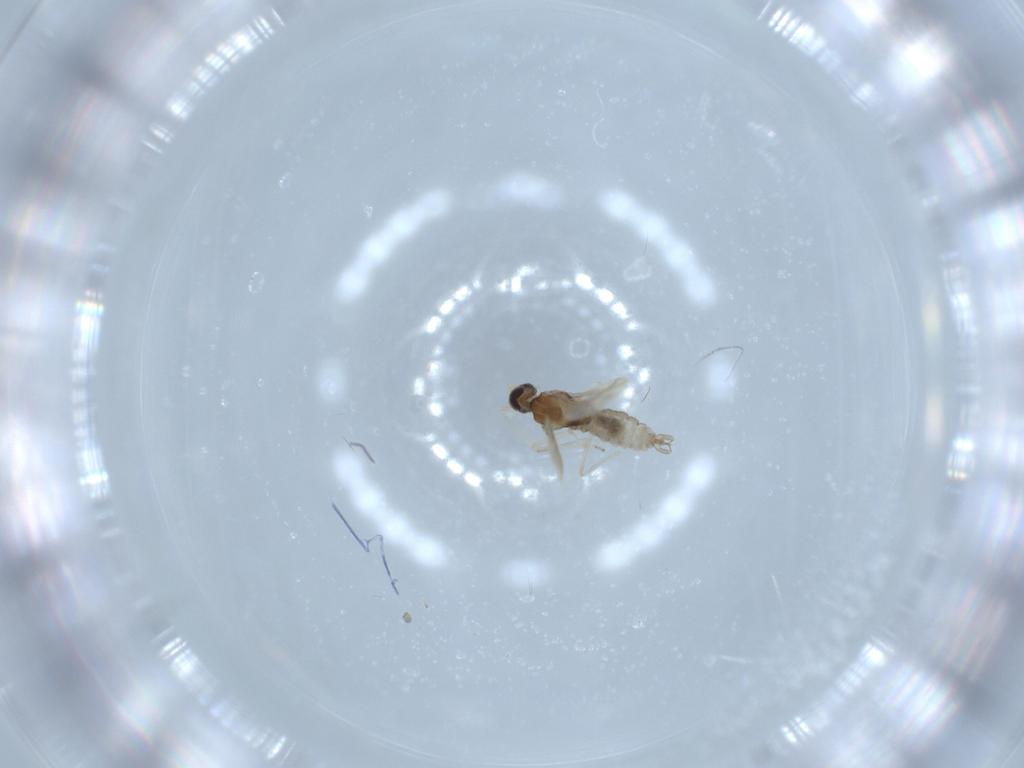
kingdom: Animalia
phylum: Arthropoda
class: Insecta
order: Diptera
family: Cecidomyiidae
